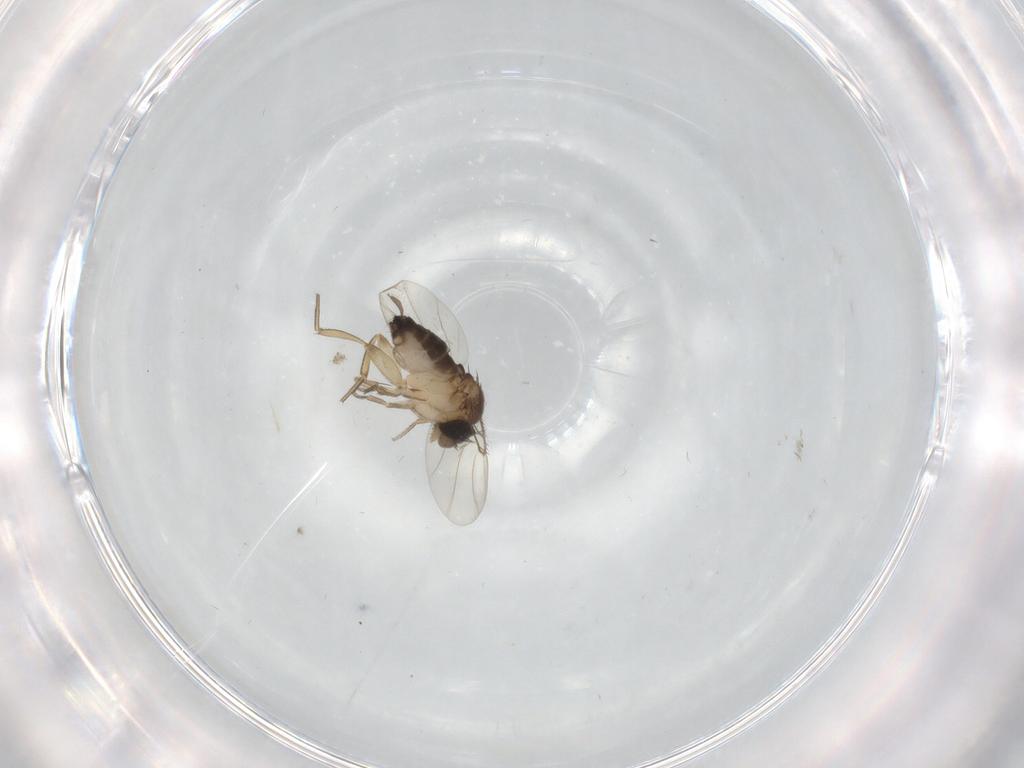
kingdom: Animalia
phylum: Arthropoda
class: Insecta
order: Diptera
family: Phoridae
